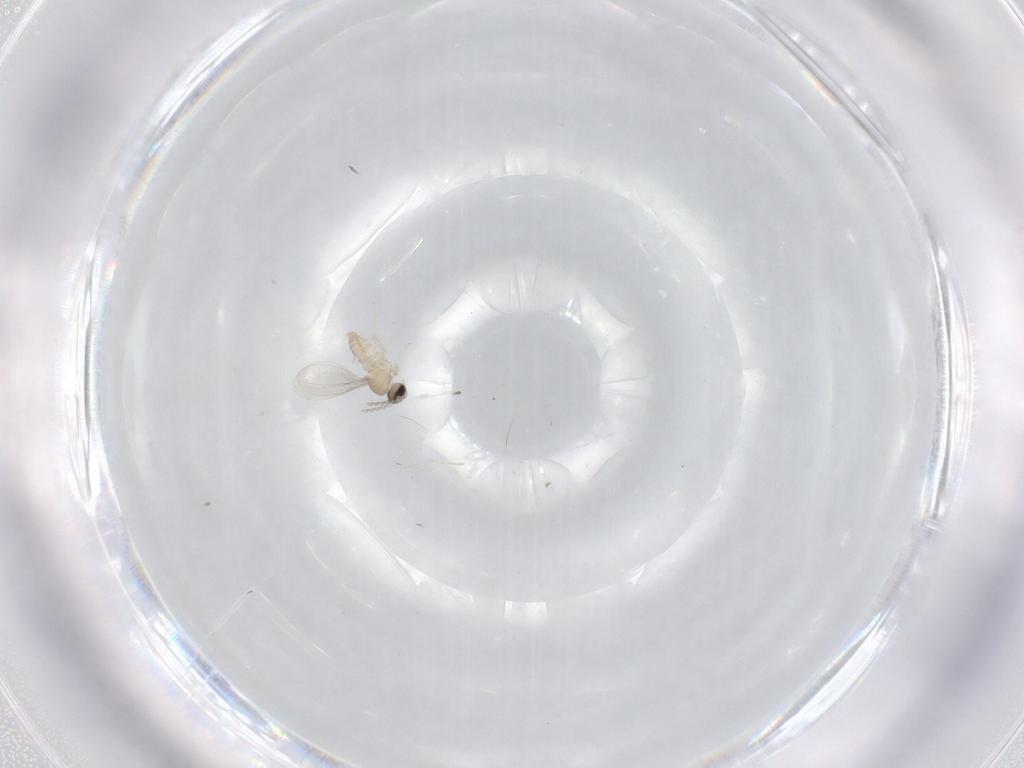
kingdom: Animalia
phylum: Arthropoda
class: Insecta
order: Diptera
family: Cecidomyiidae
